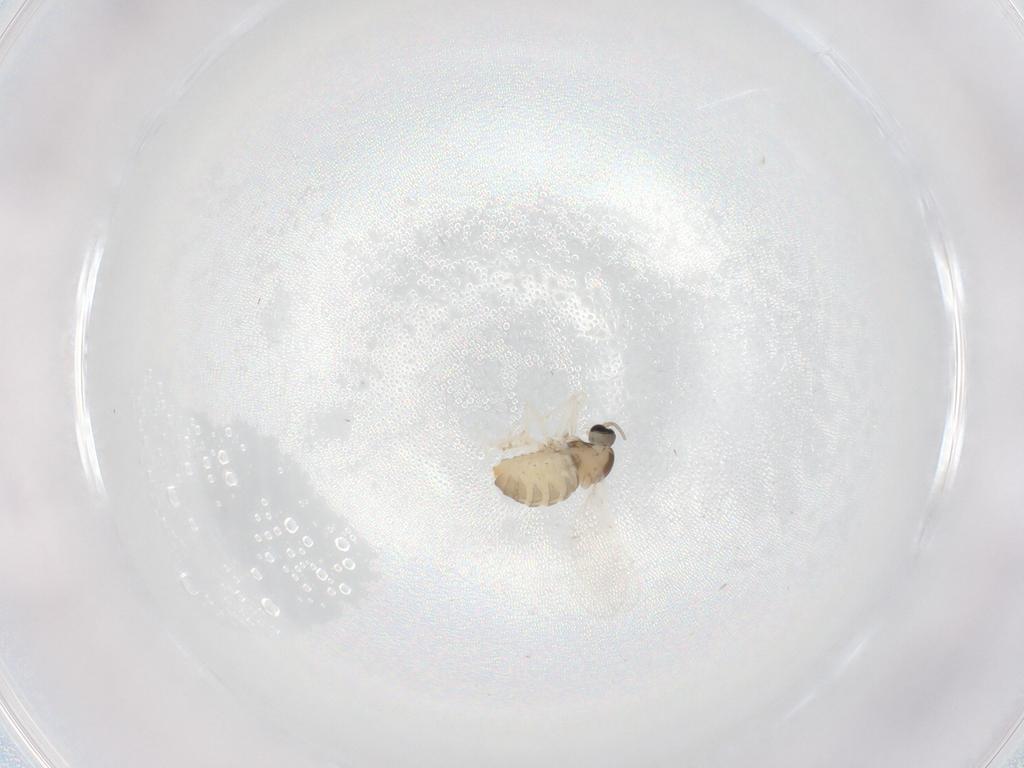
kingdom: Animalia
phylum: Arthropoda
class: Insecta
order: Diptera
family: Cecidomyiidae
